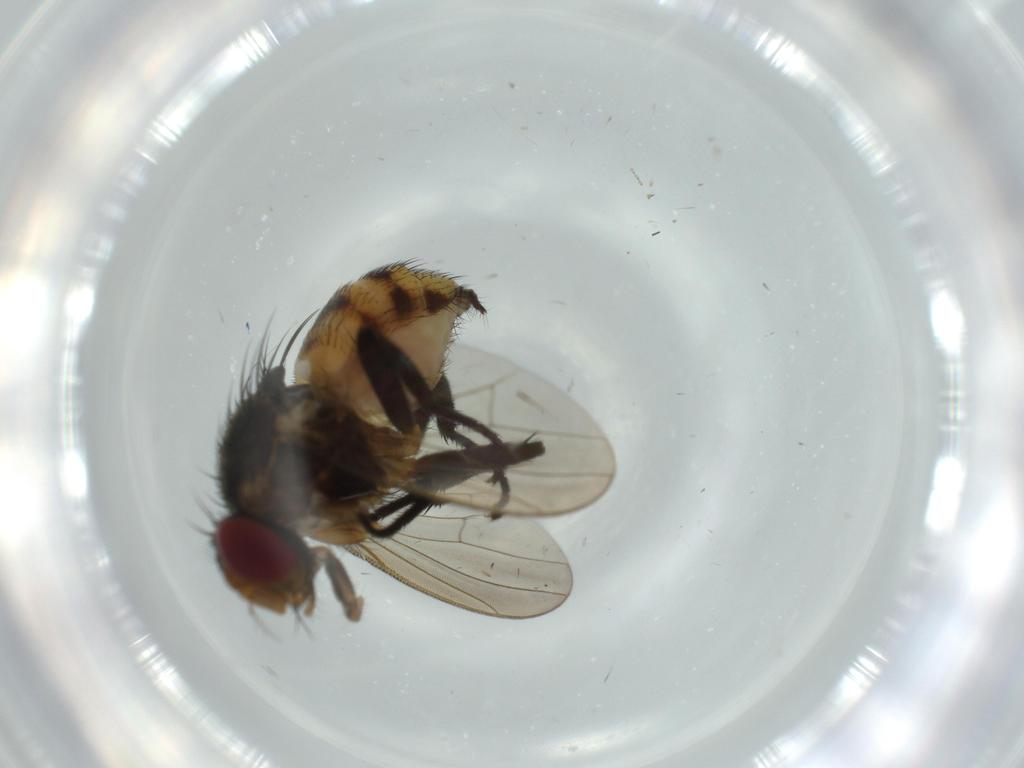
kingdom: Animalia
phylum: Arthropoda
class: Insecta
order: Diptera
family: Anthomyiidae
